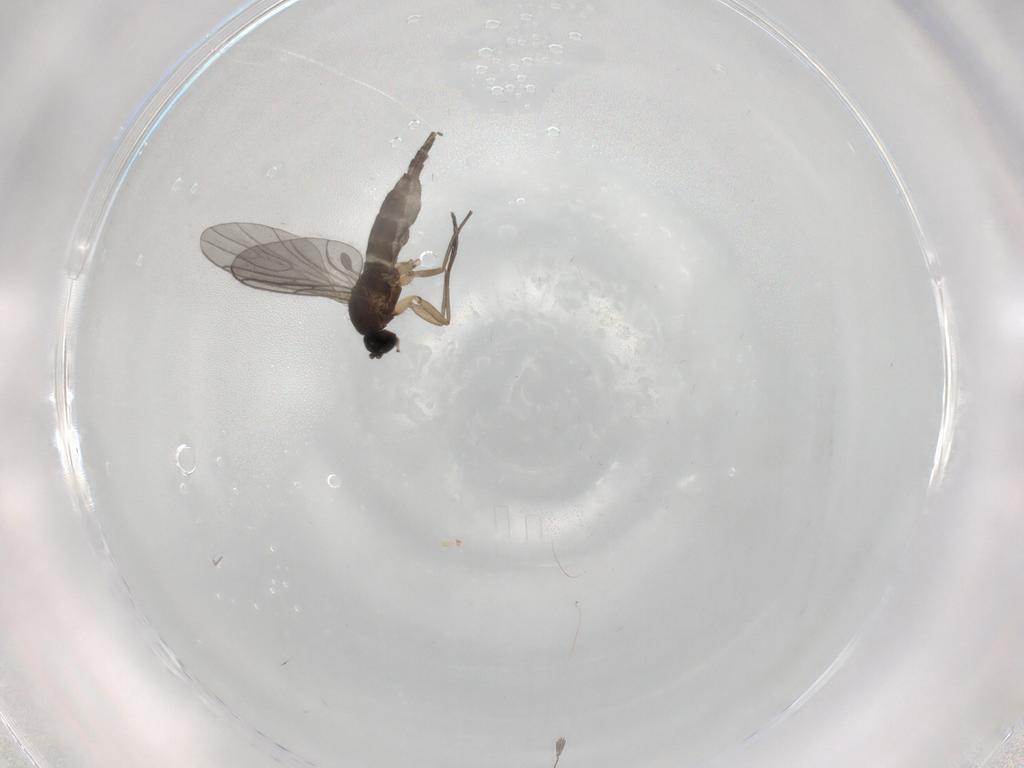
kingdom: Animalia
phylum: Arthropoda
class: Insecta
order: Diptera
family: Sciaridae
